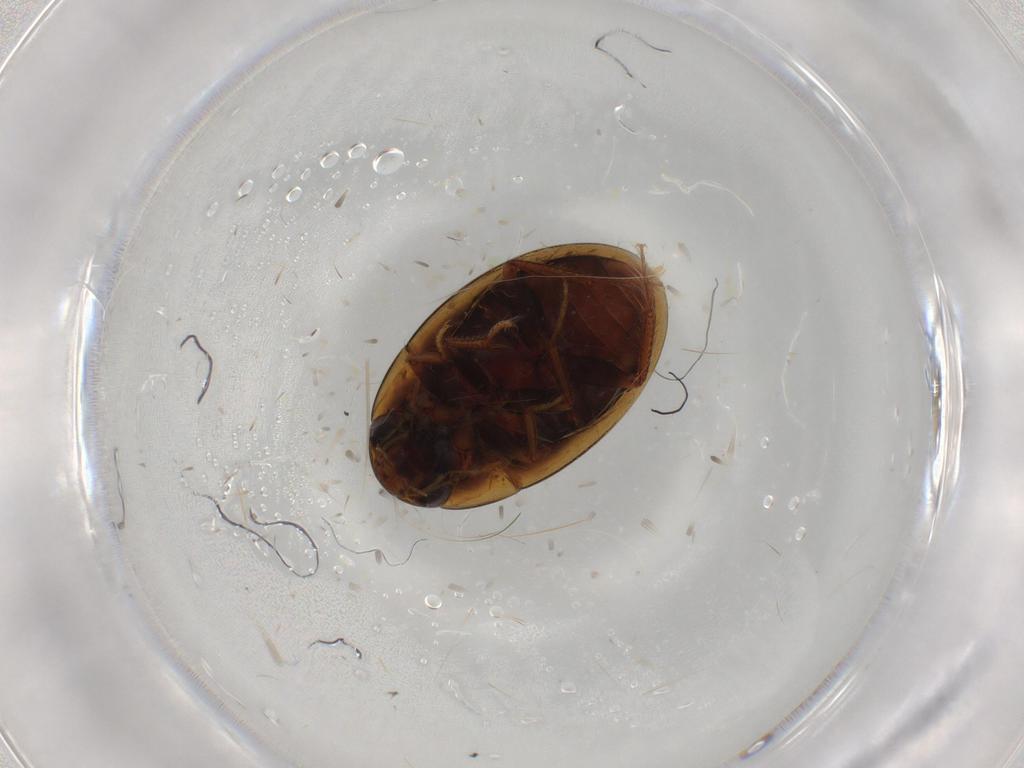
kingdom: Animalia
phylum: Arthropoda
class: Insecta
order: Coleoptera
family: Hydrophilidae
